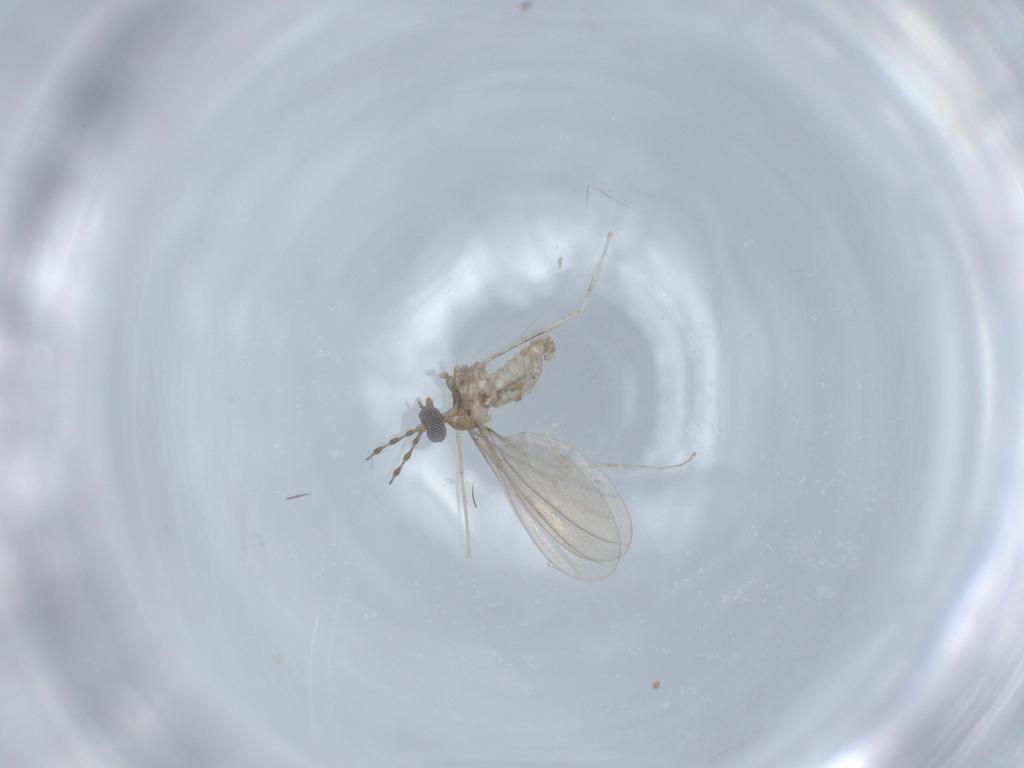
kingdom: Animalia
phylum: Arthropoda
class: Insecta
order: Diptera
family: Cecidomyiidae
